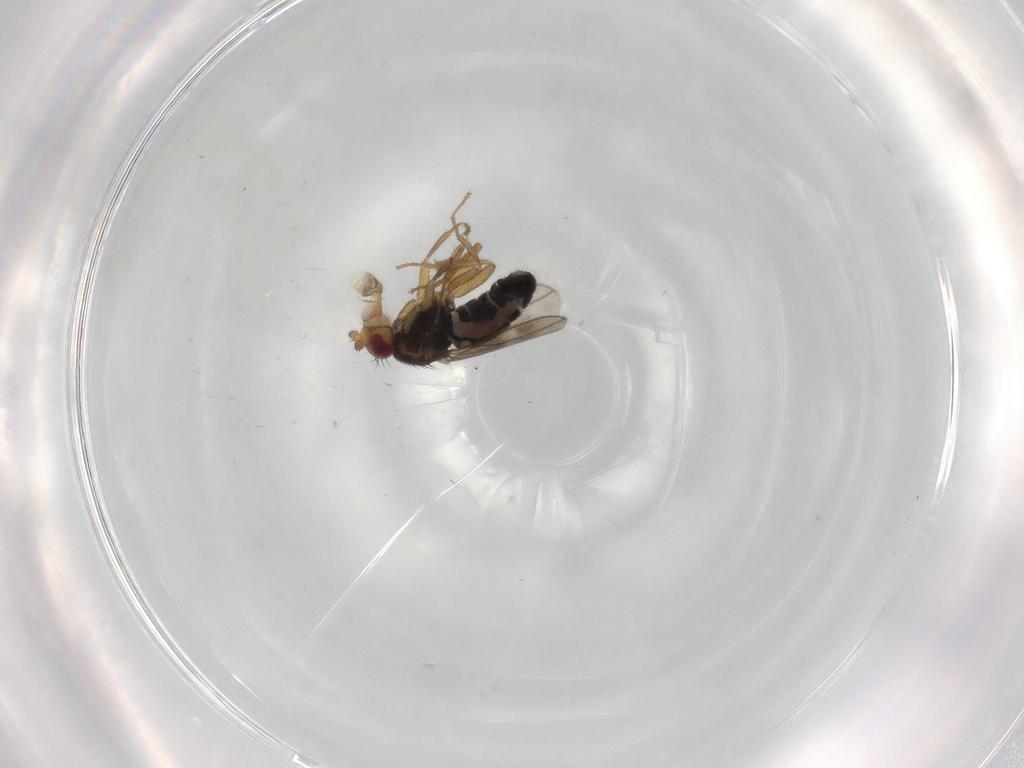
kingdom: Animalia
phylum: Arthropoda
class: Insecta
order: Diptera
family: Sphaeroceridae
